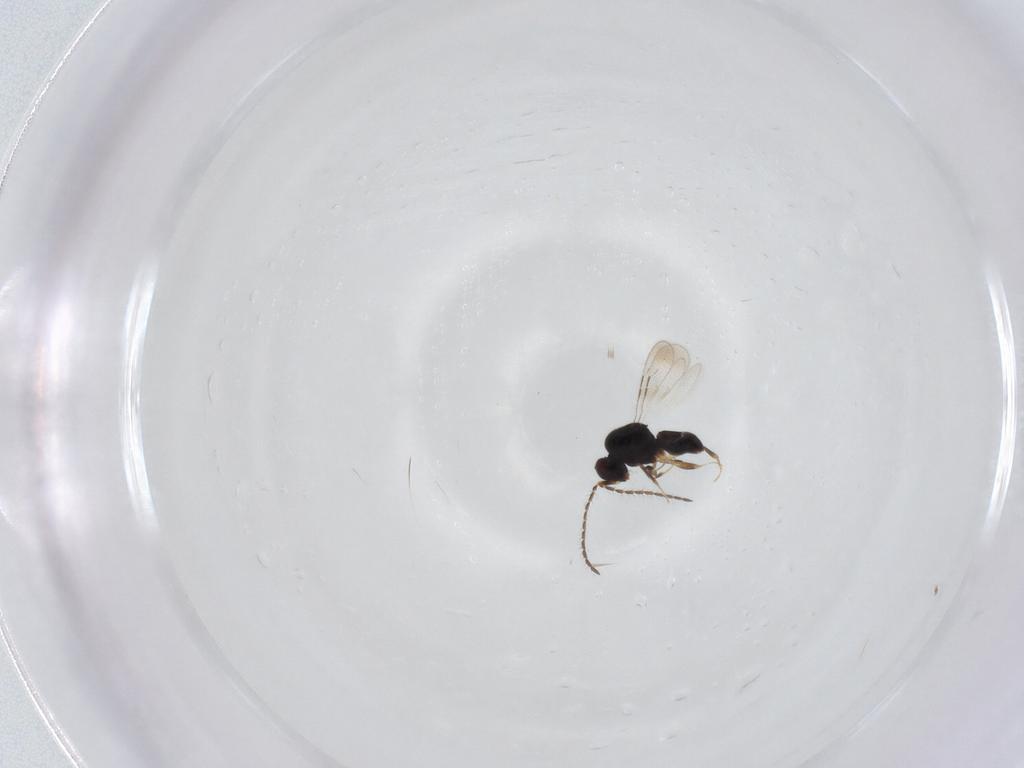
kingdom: Animalia
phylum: Arthropoda
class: Insecta
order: Hymenoptera
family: Ceraphronidae
